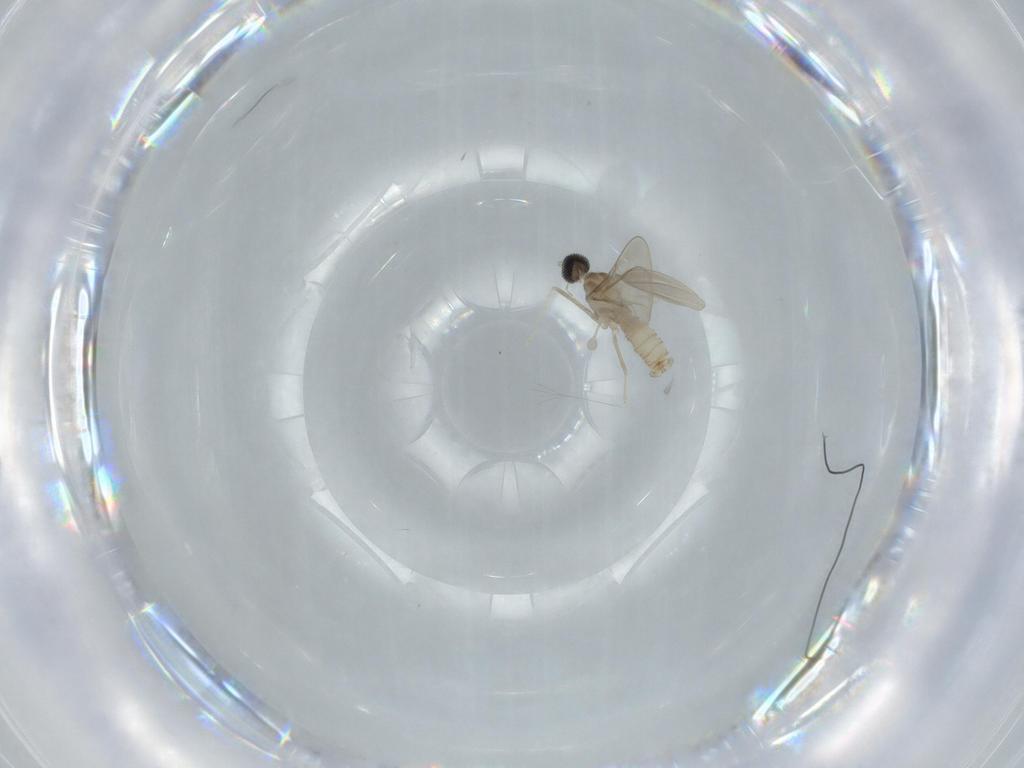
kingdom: Animalia
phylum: Arthropoda
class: Insecta
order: Diptera
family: Cecidomyiidae
